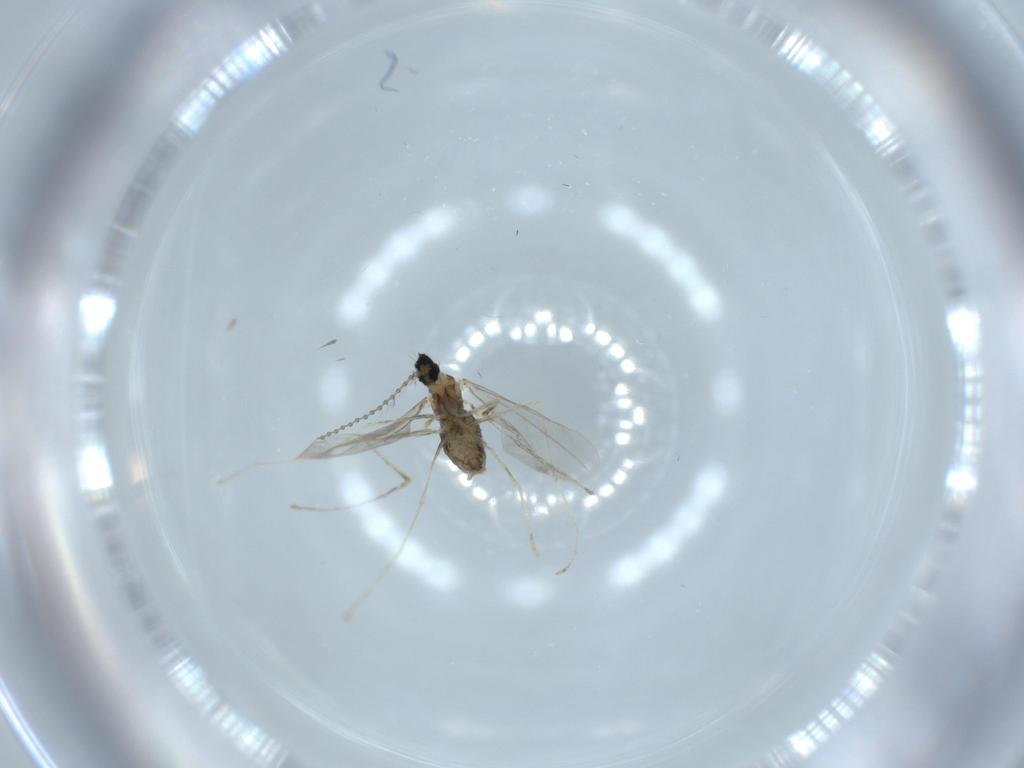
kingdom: Animalia
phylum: Arthropoda
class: Insecta
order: Diptera
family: Cecidomyiidae
